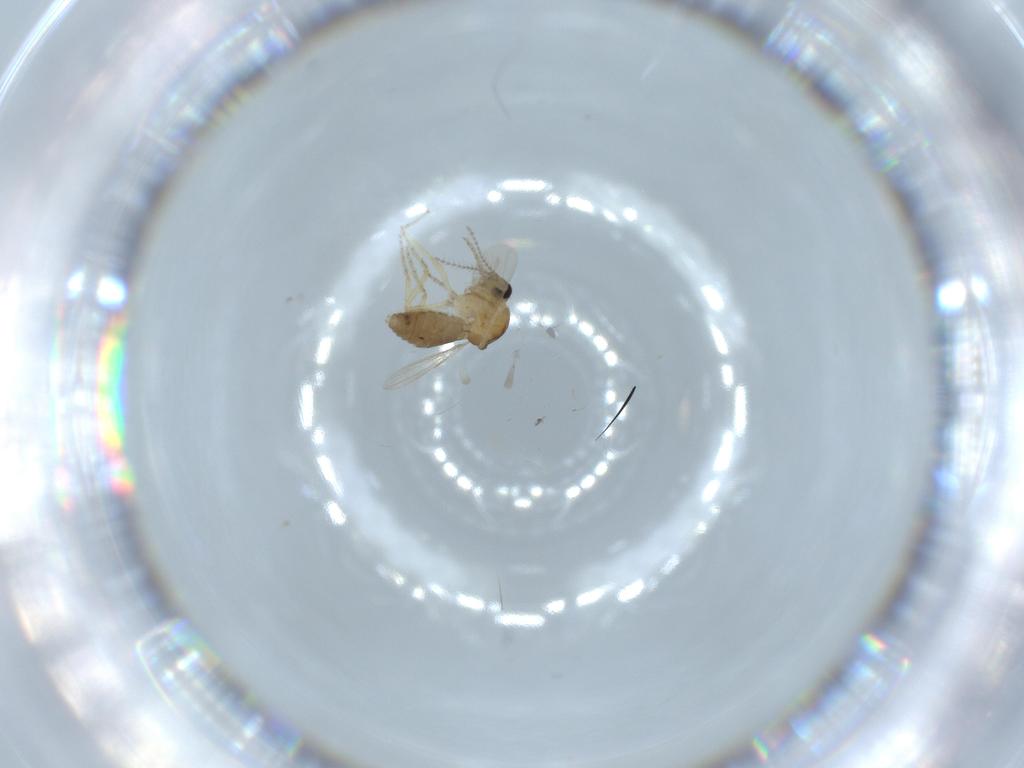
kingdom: Animalia
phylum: Arthropoda
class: Insecta
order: Diptera
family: Ceratopogonidae
